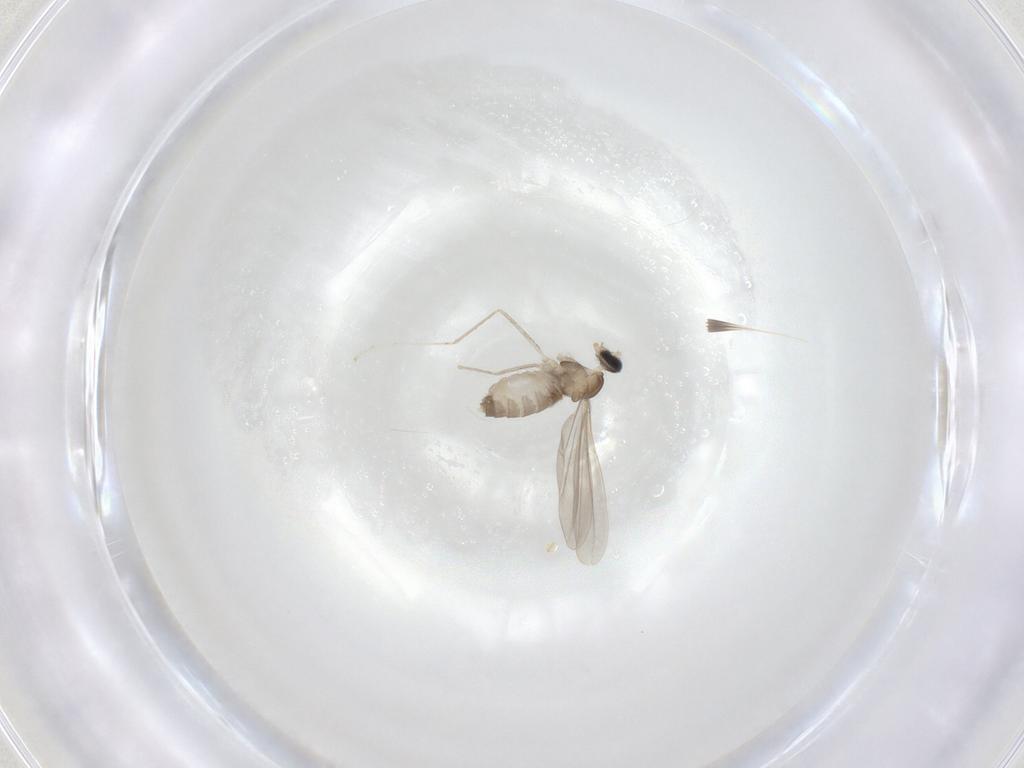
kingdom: Animalia
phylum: Arthropoda
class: Insecta
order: Diptera
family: Cecidomyiidae
